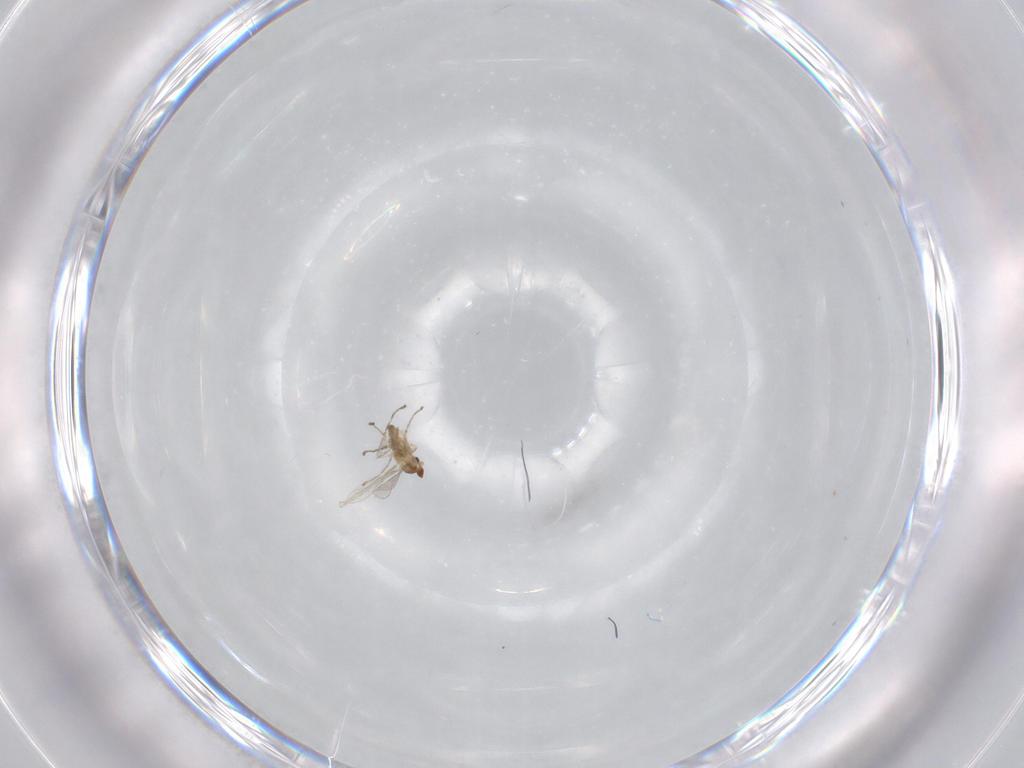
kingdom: Animalia
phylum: Arthropoda
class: Insecta
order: Diptera
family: Cecidomyiidae
